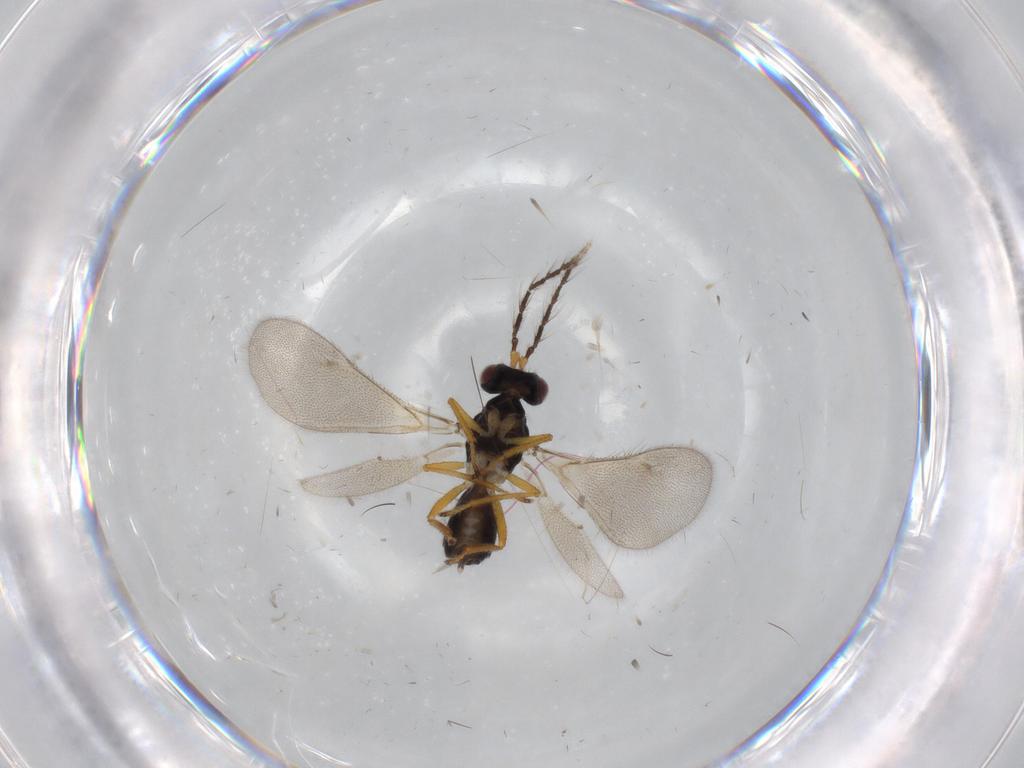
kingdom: Animalia
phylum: Arthropoda
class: Insecta
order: Hymenoptera
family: Eulophidae
